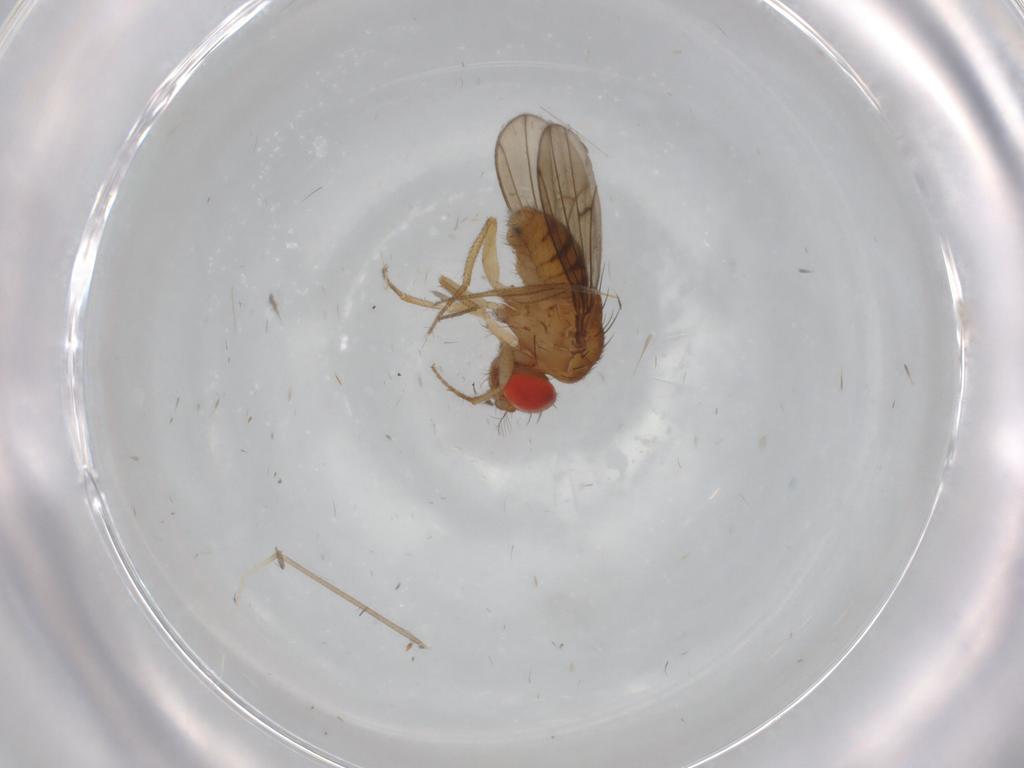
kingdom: Animalia
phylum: Arthropoda
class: Insecta
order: Diptera
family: Drosophilidae
